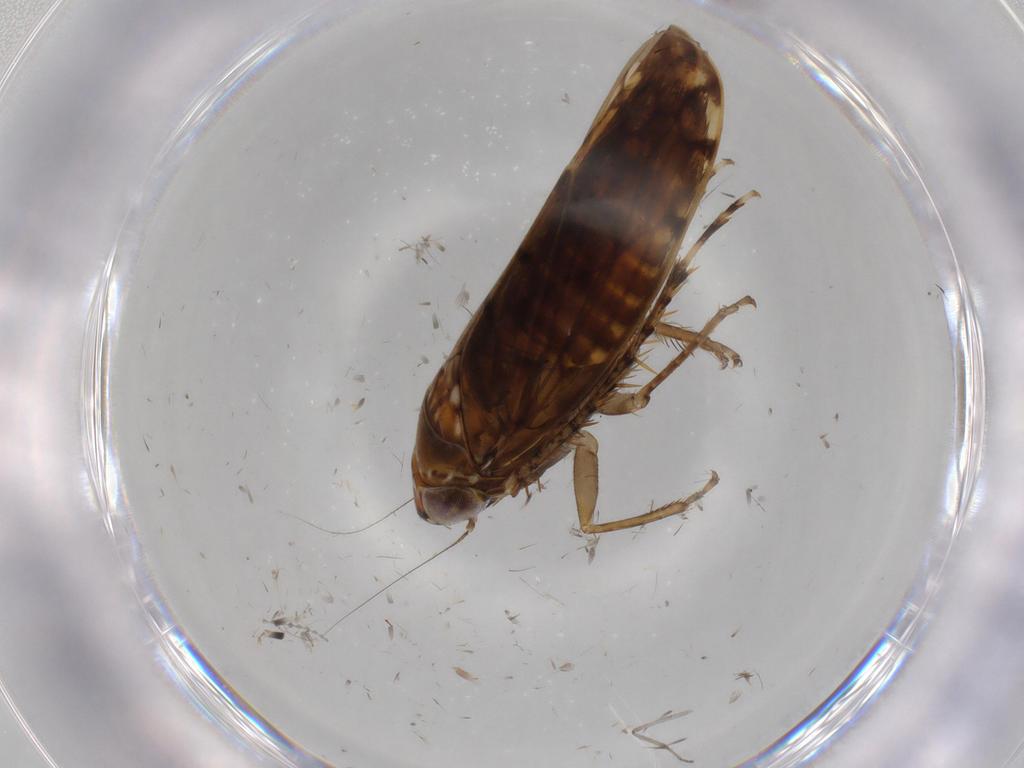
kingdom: Animalia
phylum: Arthropoda
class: Insecta
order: Hemiptera
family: Cicadellidae
